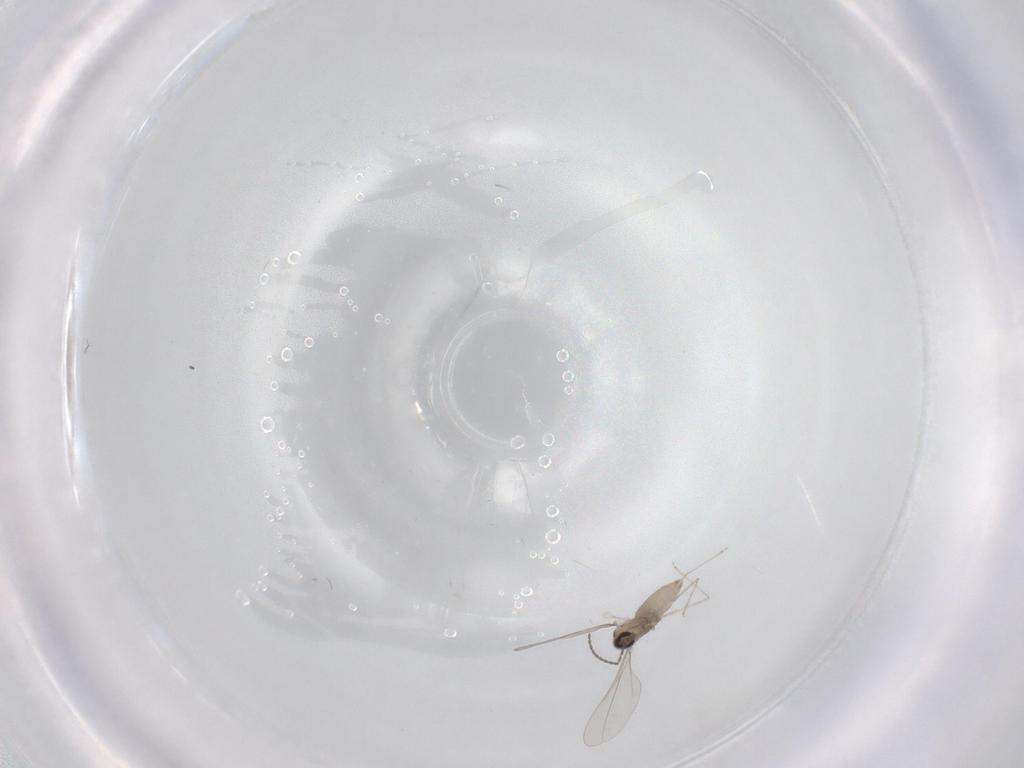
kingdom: Animalia
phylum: Arthropoda
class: Insecta
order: Diptera
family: Cecidomyiidae
